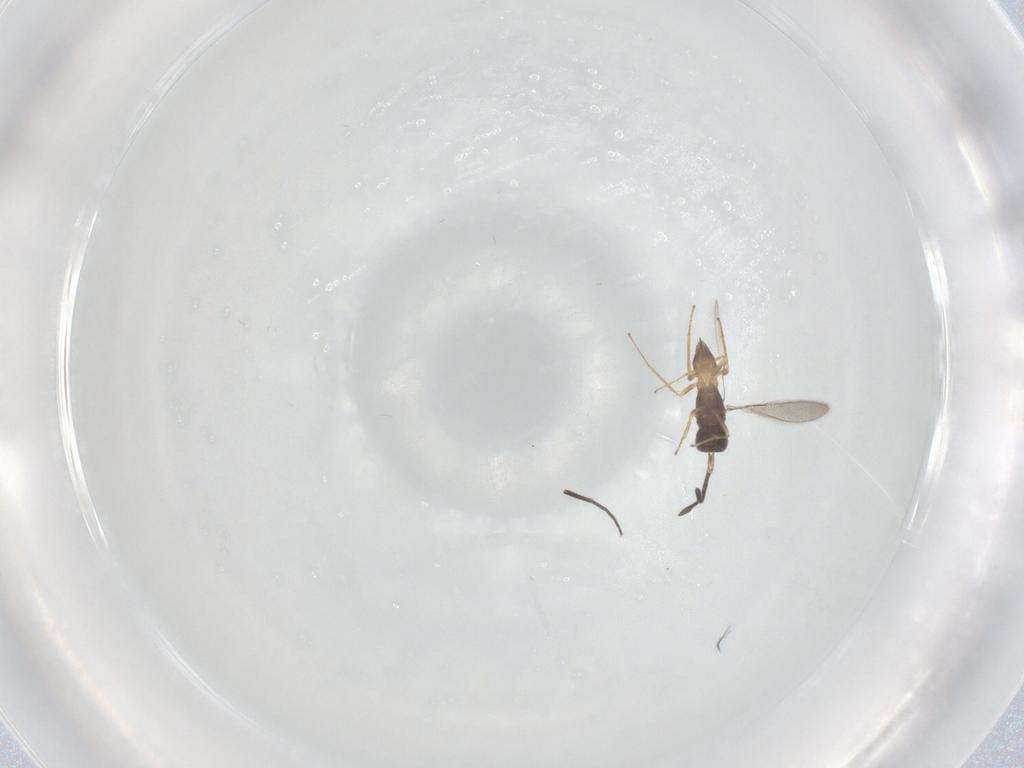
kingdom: Animalia
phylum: Arthropoda
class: Insecta
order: Hymenoptera
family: Mymaridae
